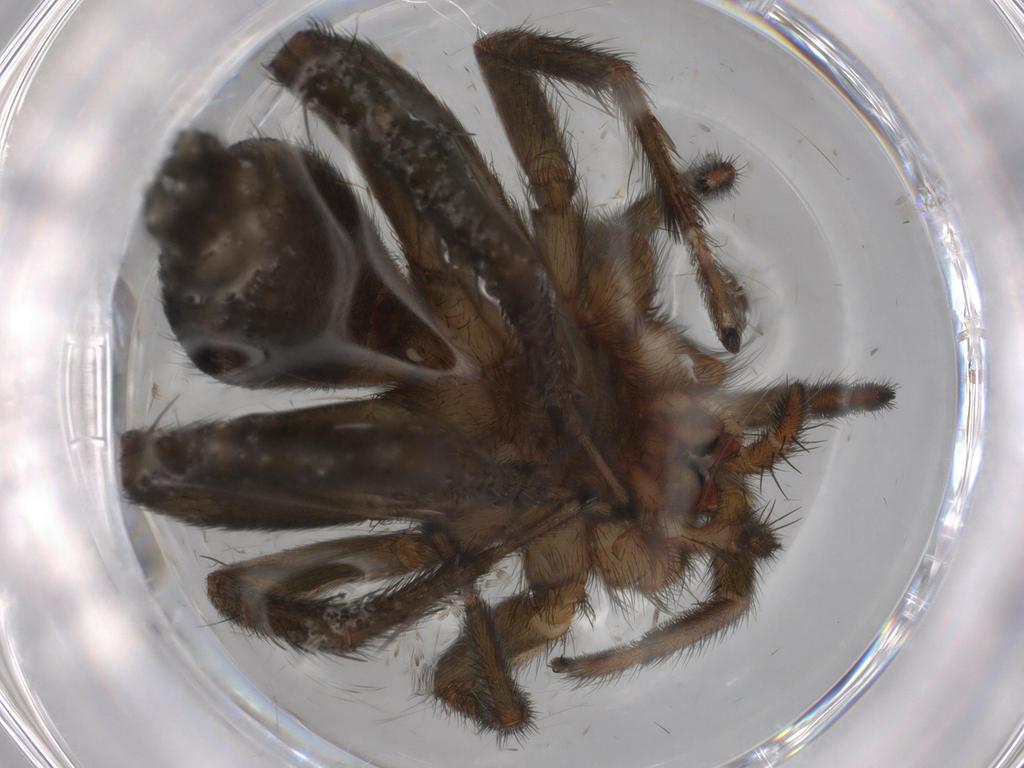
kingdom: Animalia
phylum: Arthropoda
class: Arachnida
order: Araneae
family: Gnaphosidae
